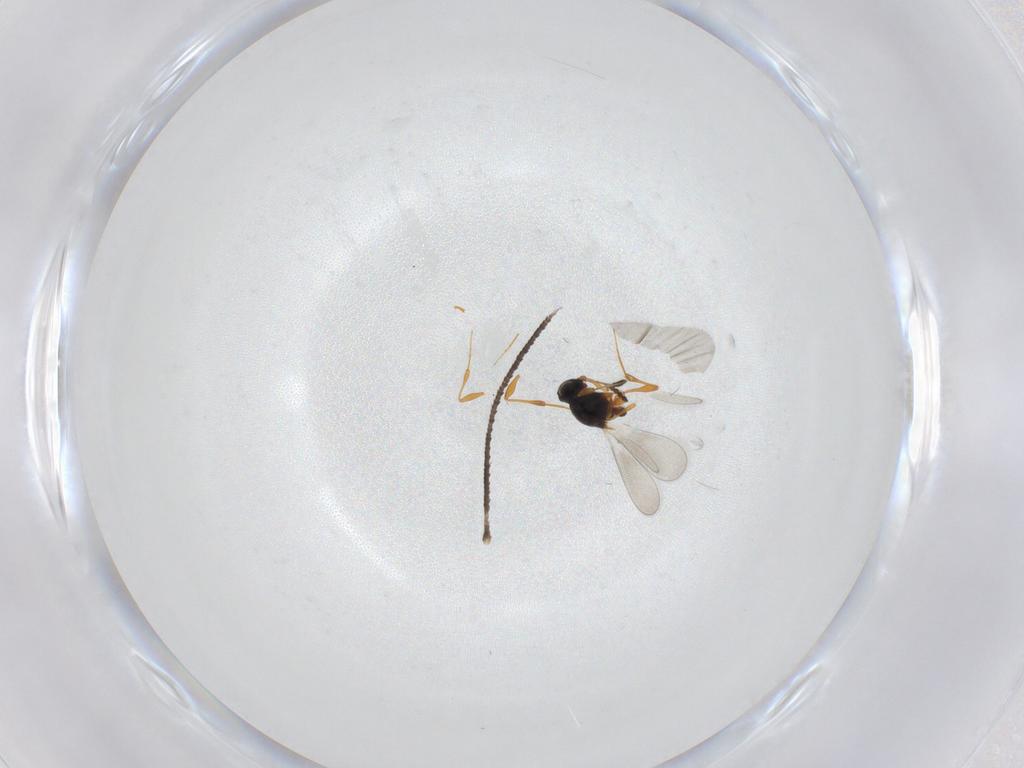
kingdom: Animalia
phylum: Arthropoda
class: Insecta
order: Hymenoptera
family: Platygastridae
